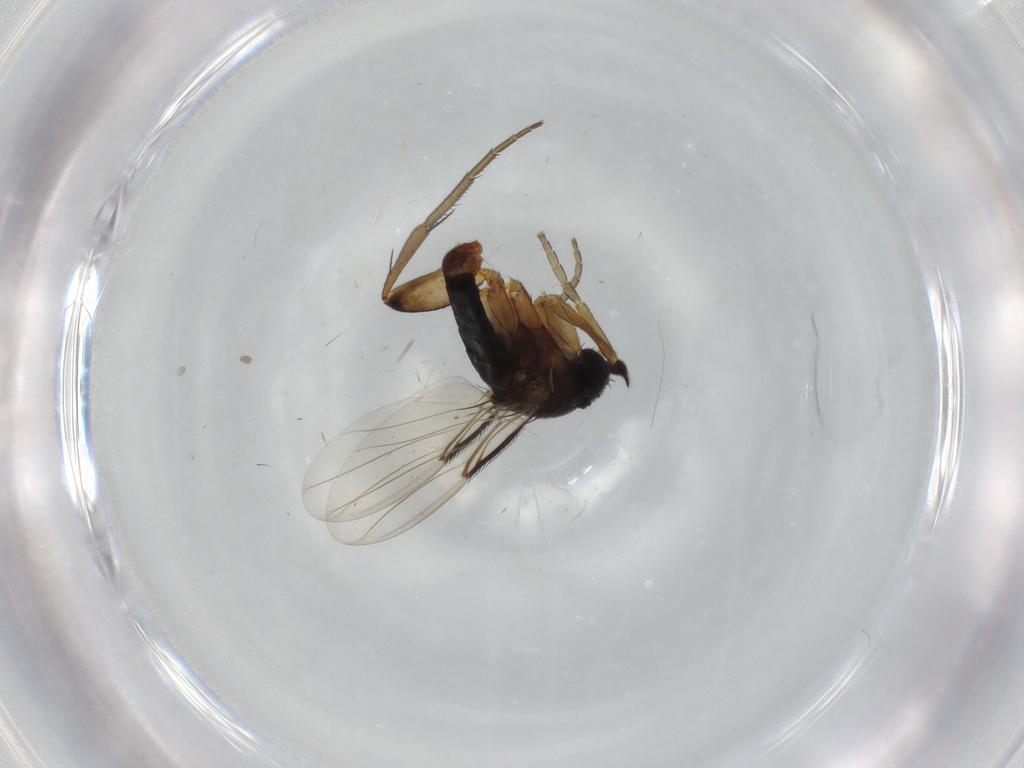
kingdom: Animalia
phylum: Arthropoda
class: Insecta
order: Diptera
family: Phoridae
